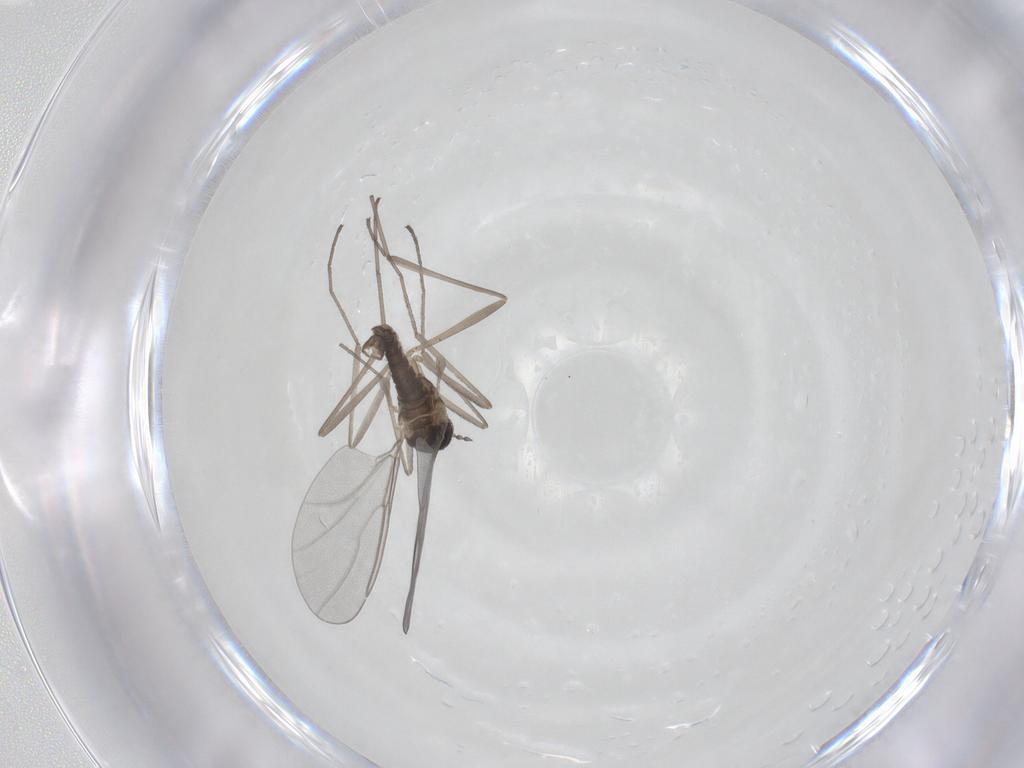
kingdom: Animalia
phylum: Arthropoda
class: Insecta
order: Diptera
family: Cecidomyiidae
